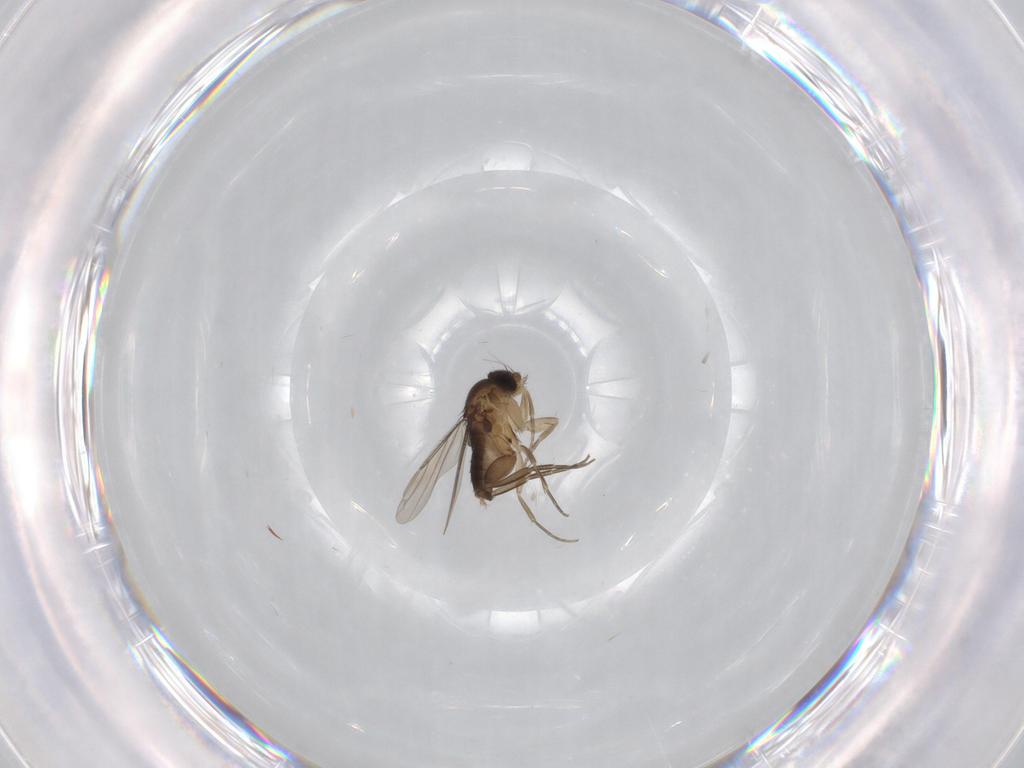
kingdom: Animalia
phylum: Arthropoda
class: Insecta
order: Diptera
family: Phoridae
